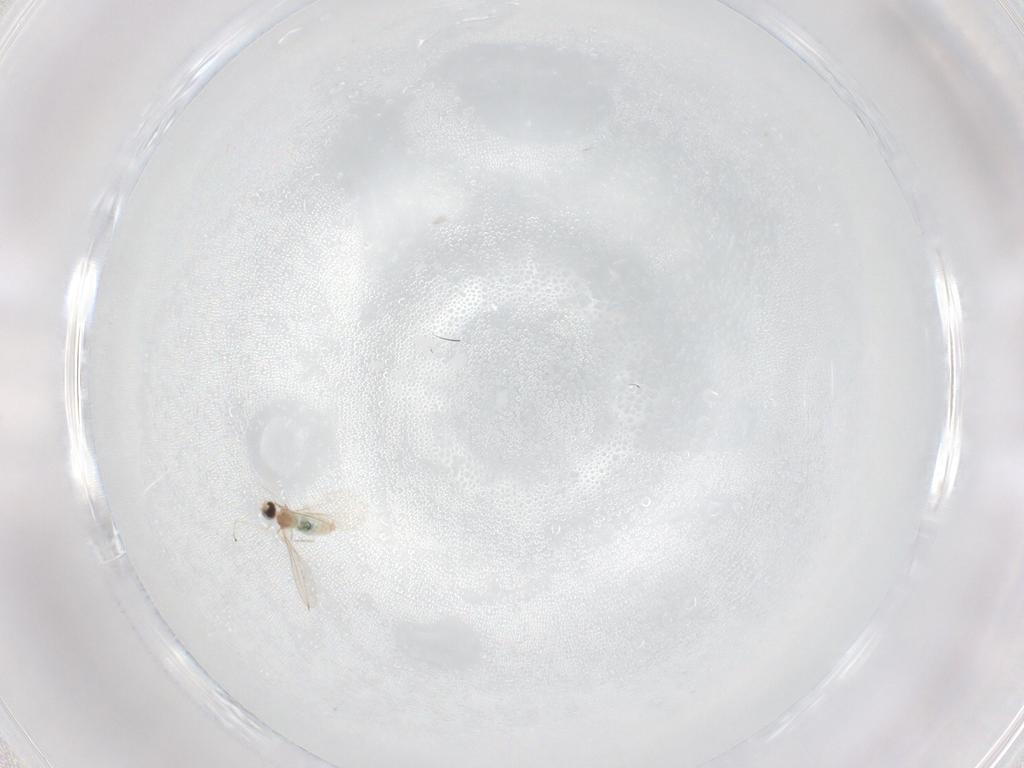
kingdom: Animalia
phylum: Arthropoda
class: Insecta
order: Diptera
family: Cecidomyiidae
